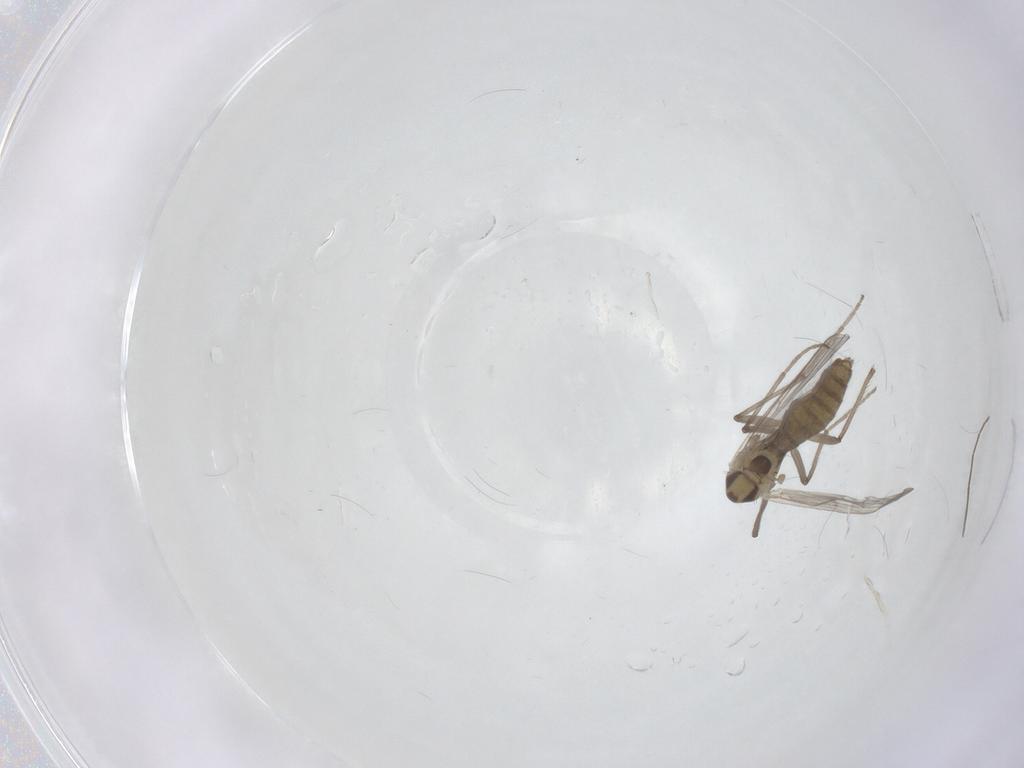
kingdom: Animalia
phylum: Arthropoda
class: Insecta
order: Diptera
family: Chironomidae
